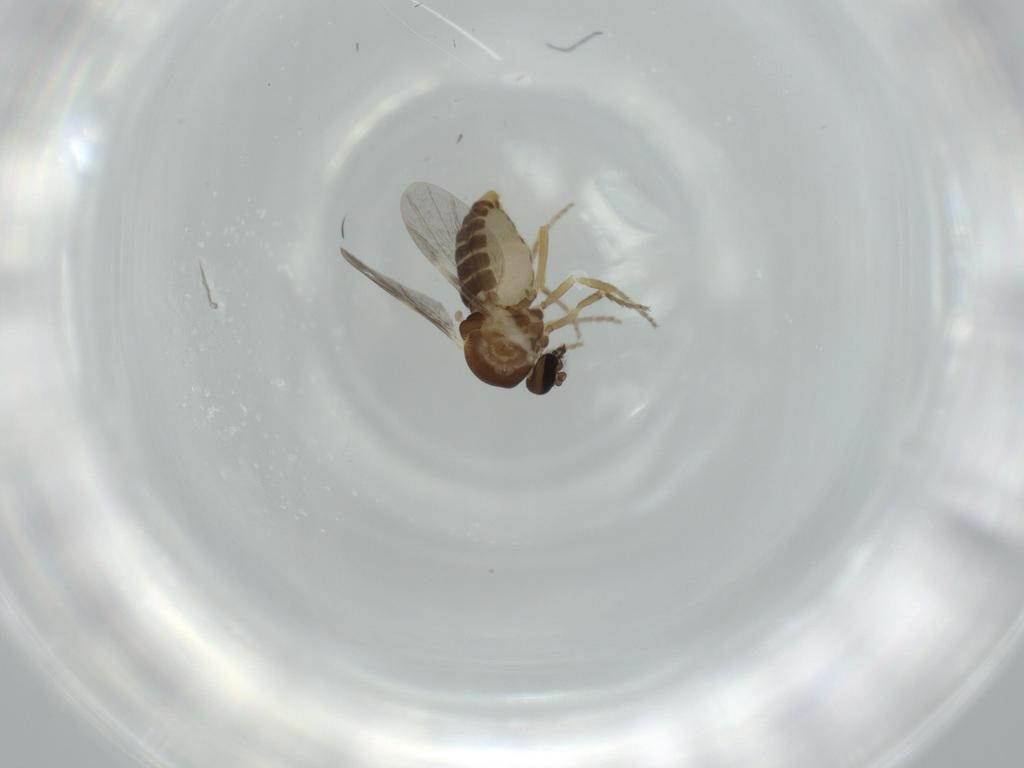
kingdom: Animalia
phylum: Arthropoda
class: Insecta
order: Diptera
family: Ceratopogonidae
